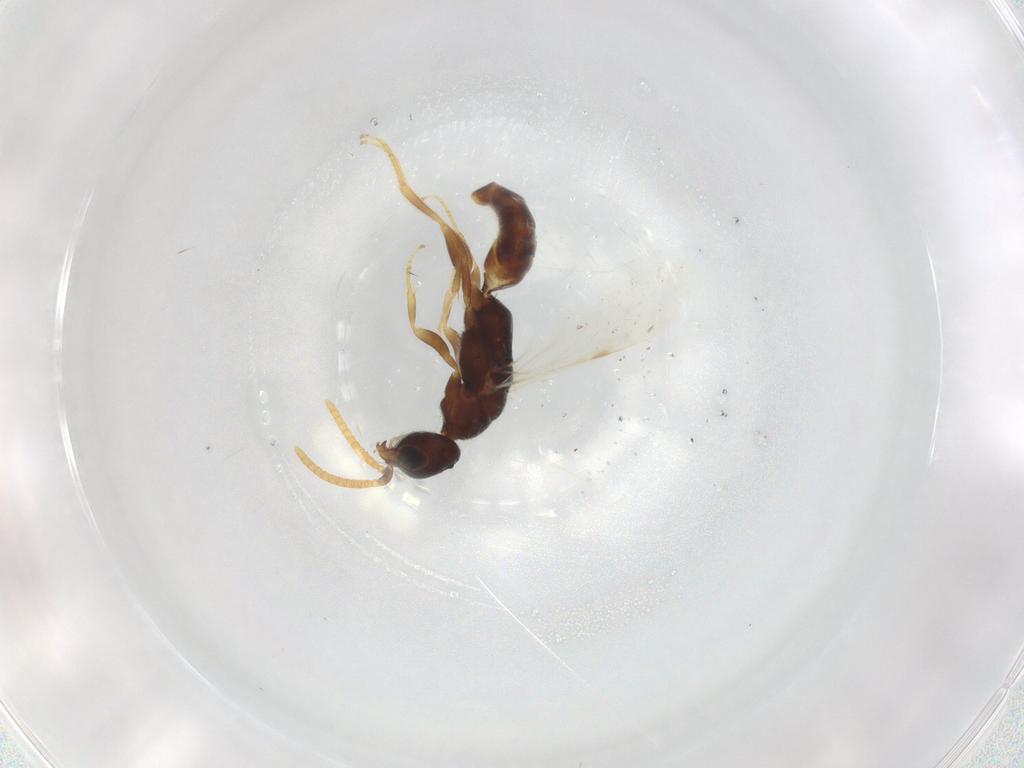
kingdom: Animalia
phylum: Arthropoda
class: Insecta
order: Hymenoptera
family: Bethylidae
